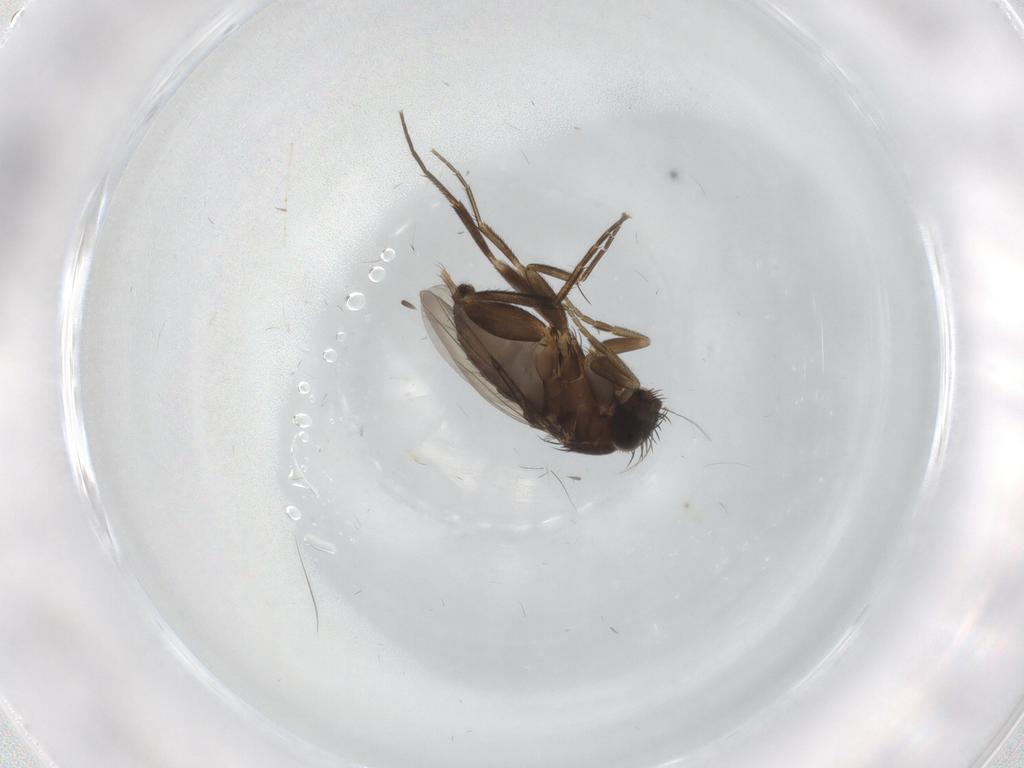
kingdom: Animalia
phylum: Arthropoda
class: Insecta
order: Diptera
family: Phoridae
